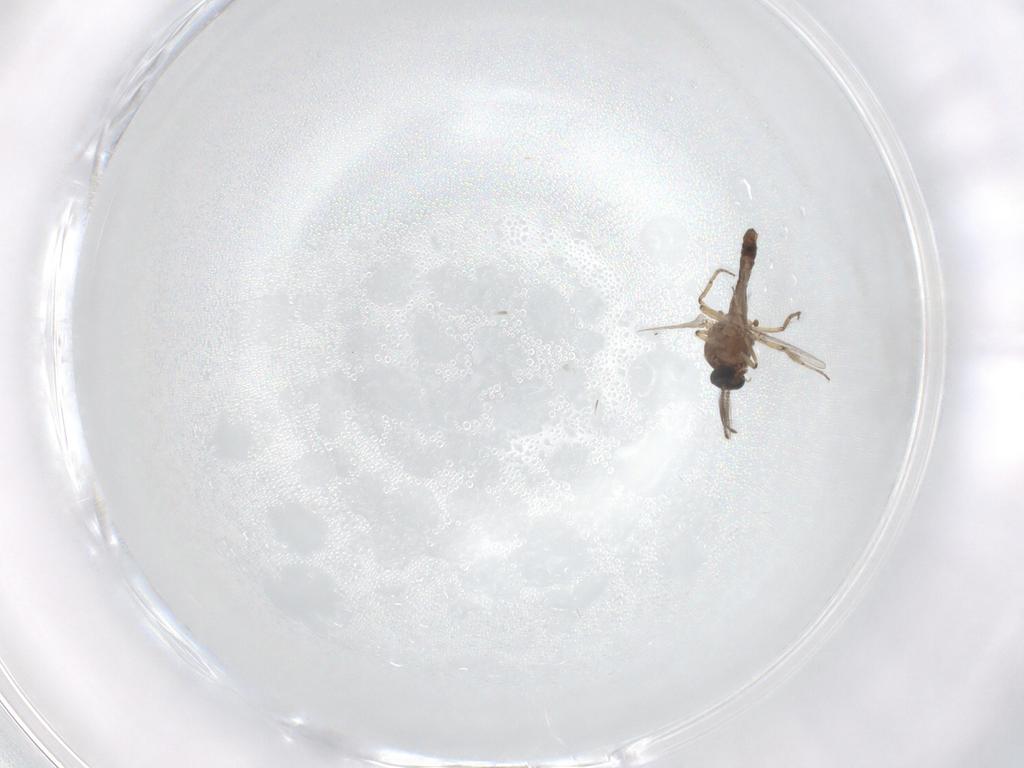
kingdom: Animalia
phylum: Arthropoda
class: Insecta
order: Diptera
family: Ceratopogonidae
